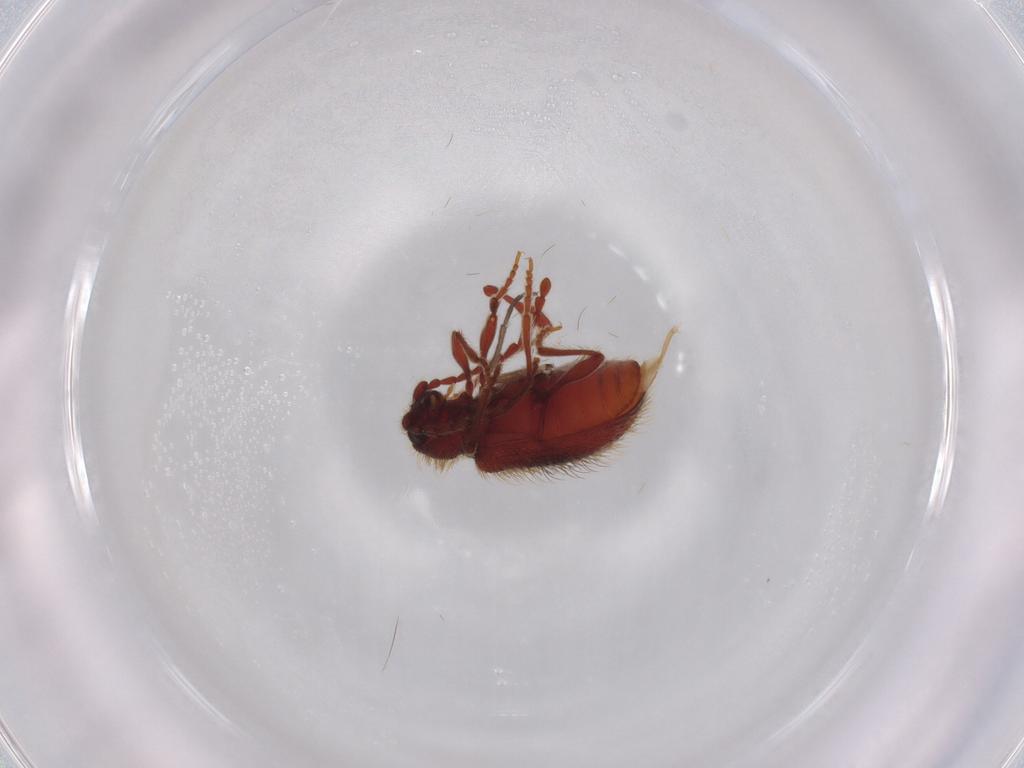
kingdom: Animalia
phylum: Arthropoda
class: Insecta
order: Coleoptera
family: Ptinidae
